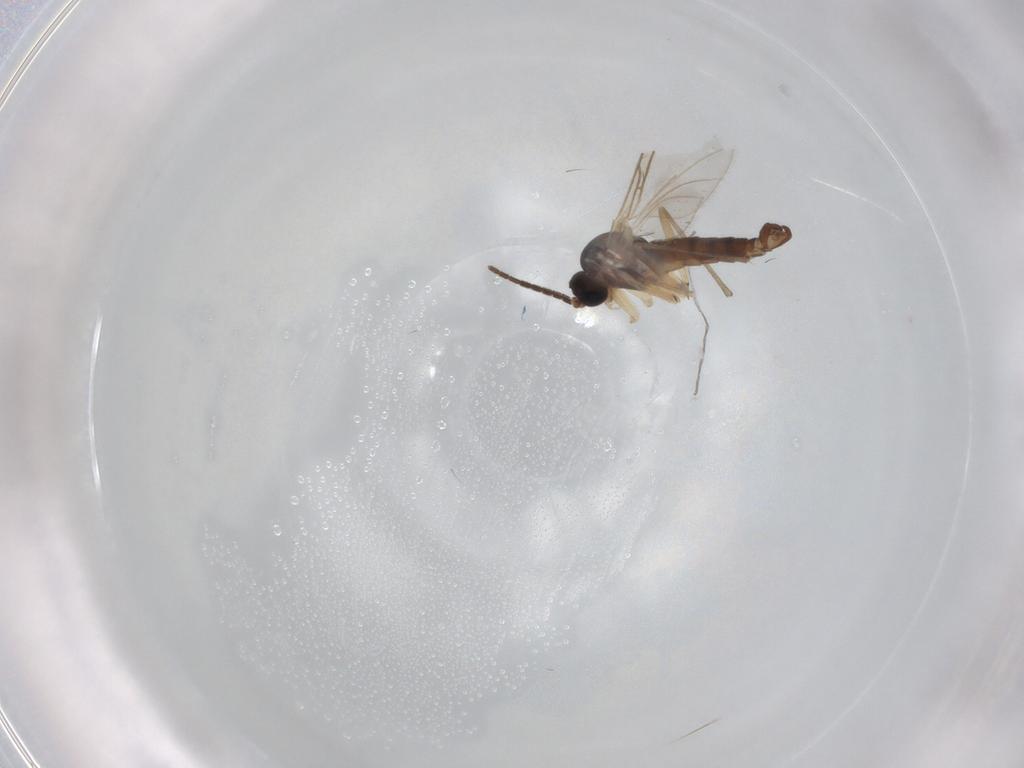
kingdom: Animalia
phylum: Arthropoda
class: Insecta
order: Diptera
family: Sciaridae
